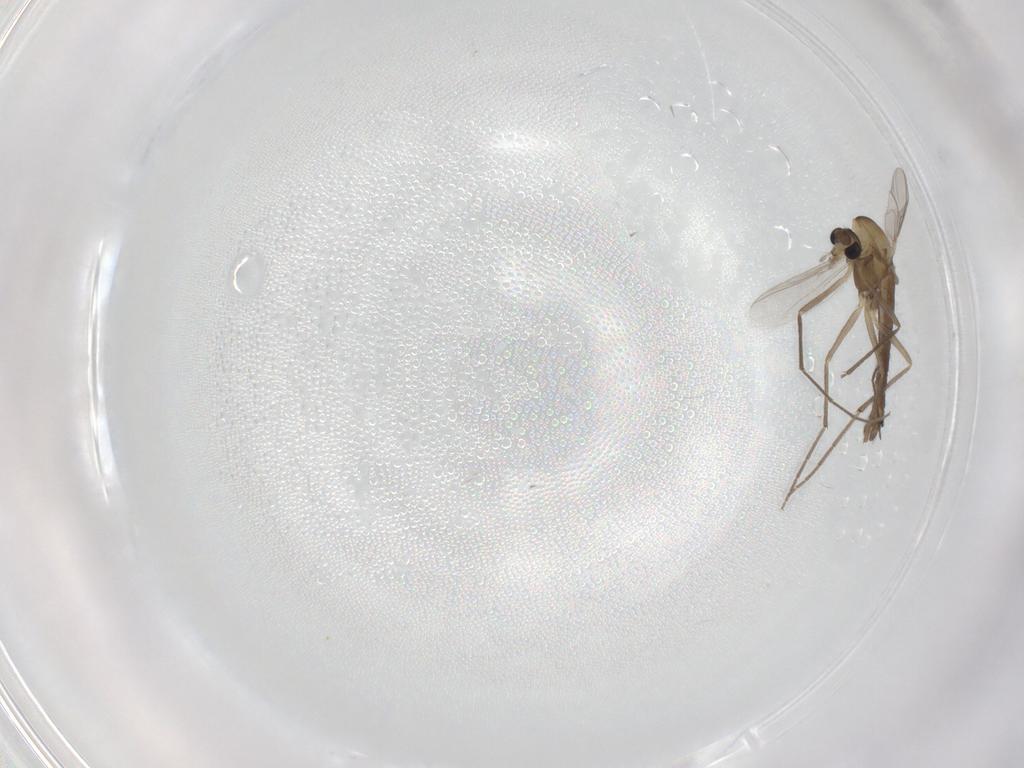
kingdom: Animalia
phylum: Arthropoda
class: Insecta
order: Diptera
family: Chironomidae
